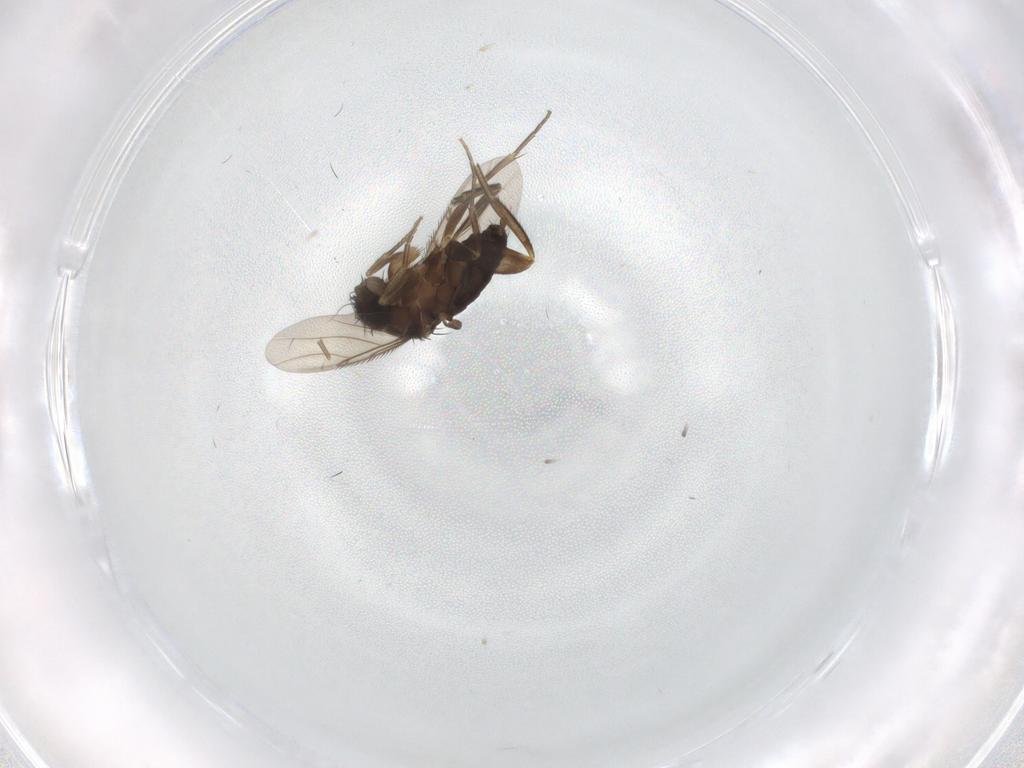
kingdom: Animalia
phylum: Arthropoda
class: Insecta
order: Diptera
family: Phoridae
